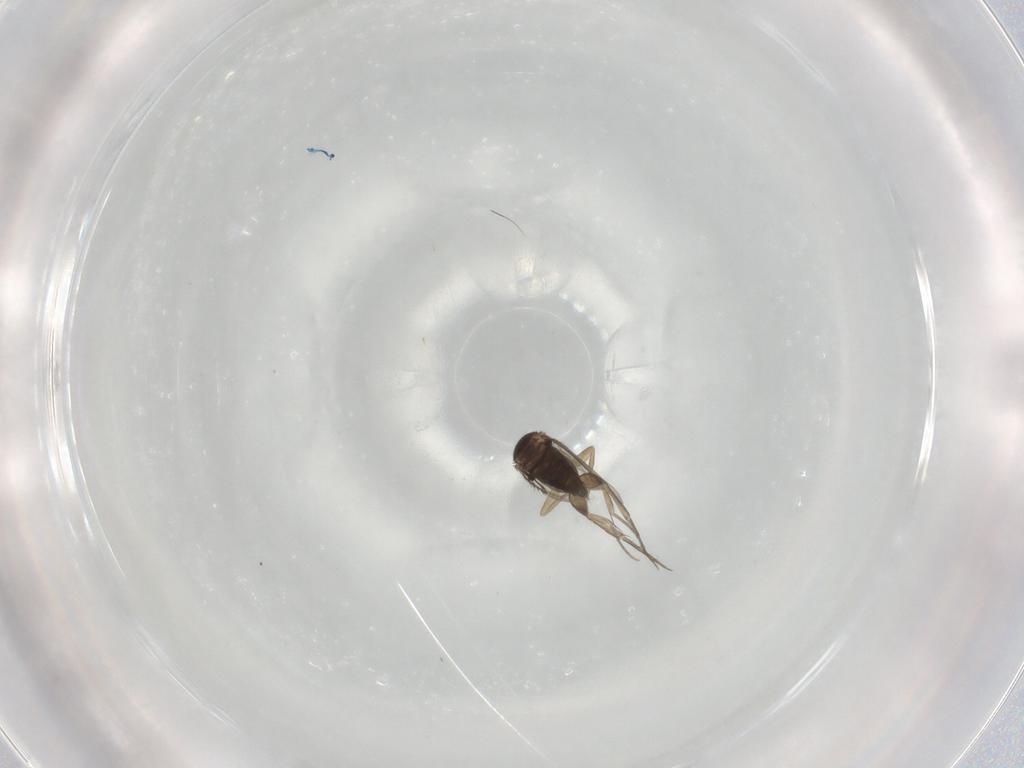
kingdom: Animalia
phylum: Arthropoda
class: Insecta
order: Diptera
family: Phoridae
